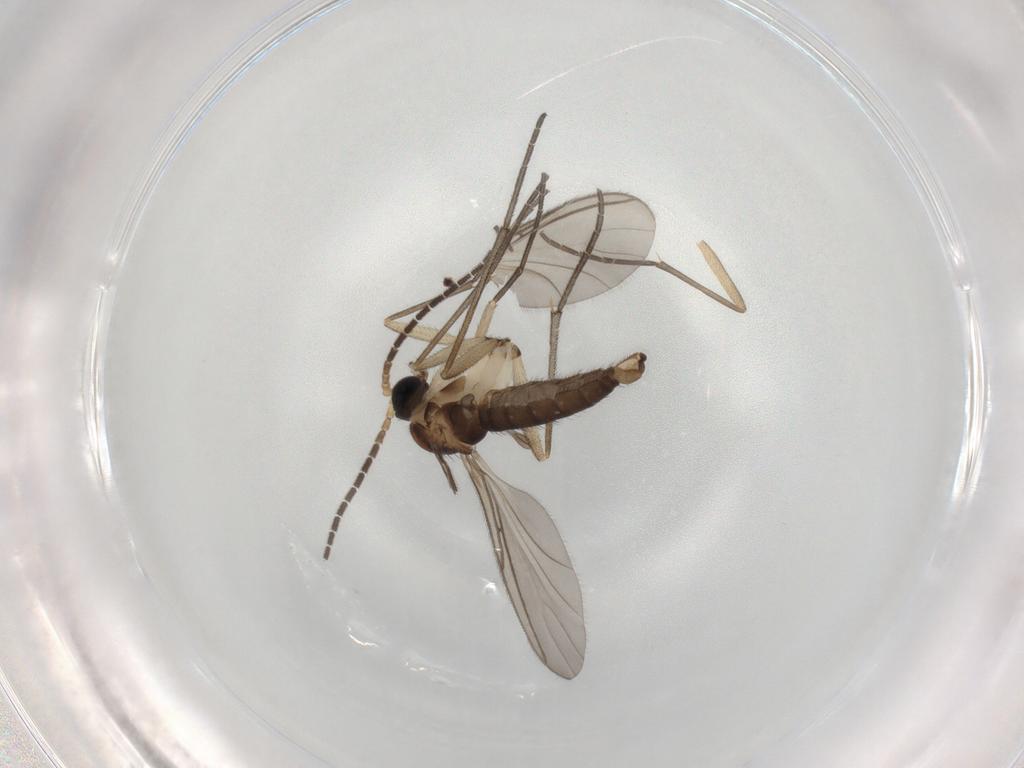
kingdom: Animalia
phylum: Arthropoda
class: Insecta
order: Diptera
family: Sciaridae
